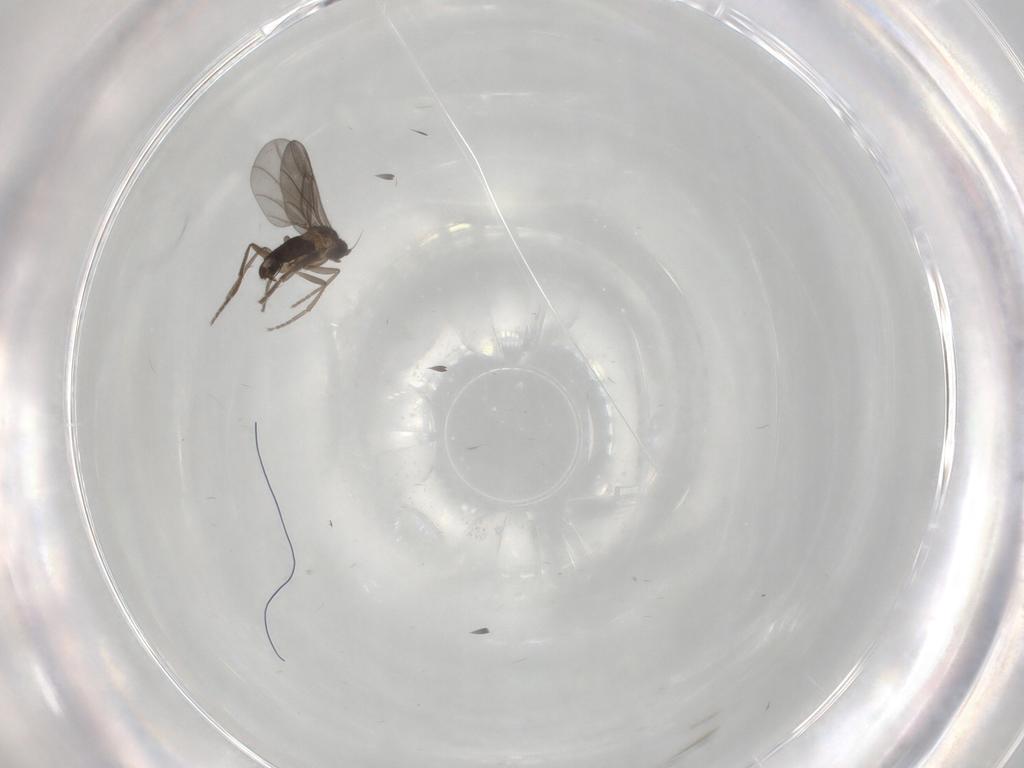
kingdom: Animalia
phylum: Arthropoda
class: Insecta
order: Diptera
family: Phoridae
